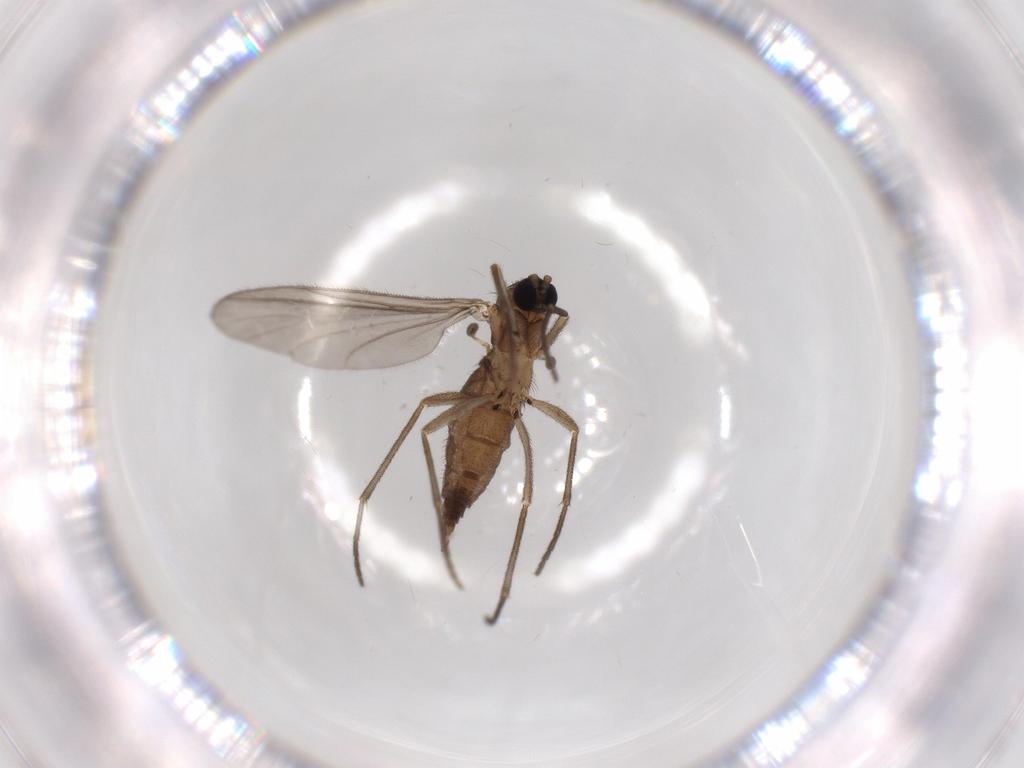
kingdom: Animalia
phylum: Arthropoda
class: Insecta
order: Diptera
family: Sciaridae
